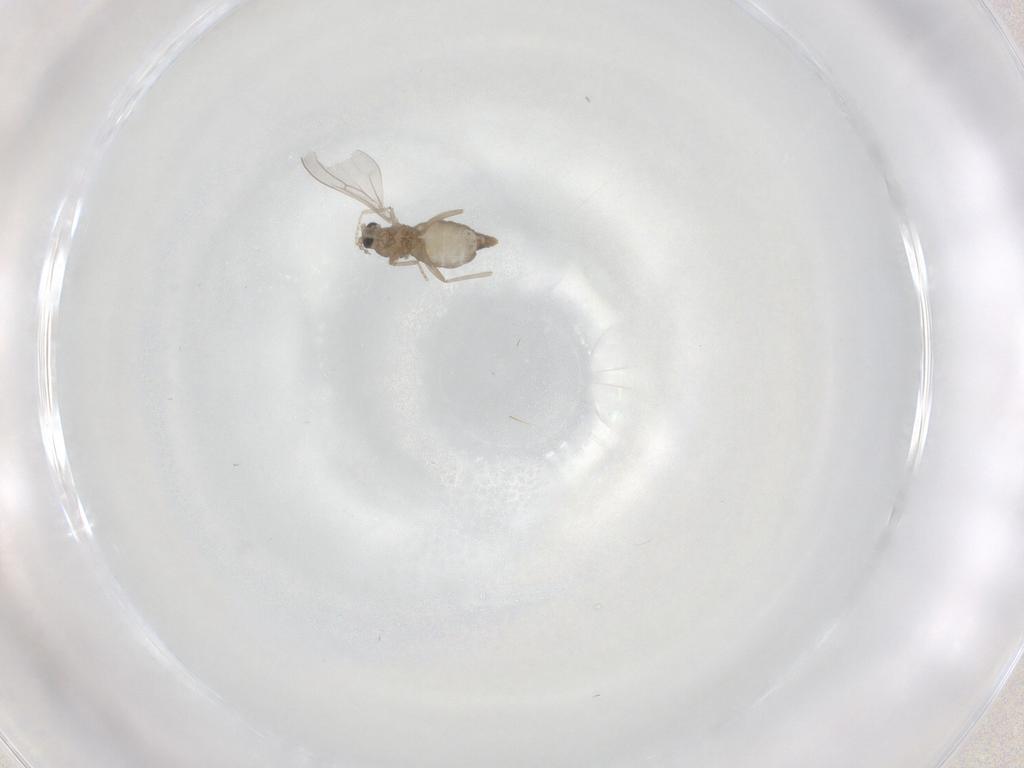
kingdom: Animalia
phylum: Arthropoda
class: Insecta
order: Diptera
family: Cecidomyiidae
